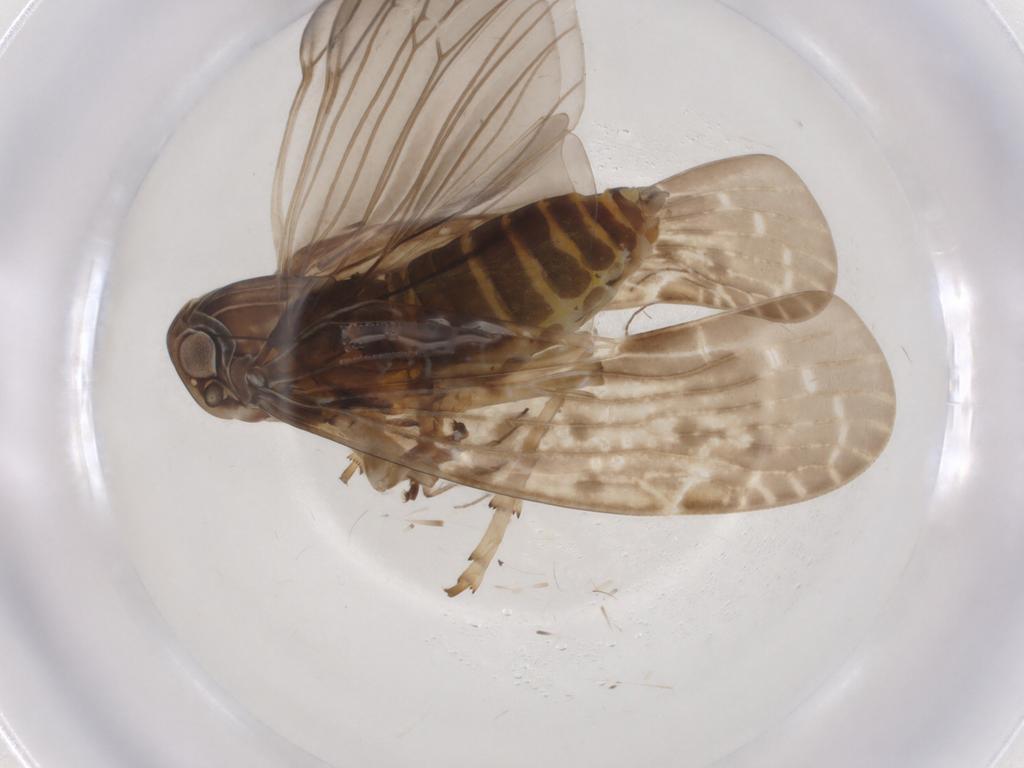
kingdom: Animalia
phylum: Arthropoda
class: Insecta
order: Hemiptera
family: Achilidae
